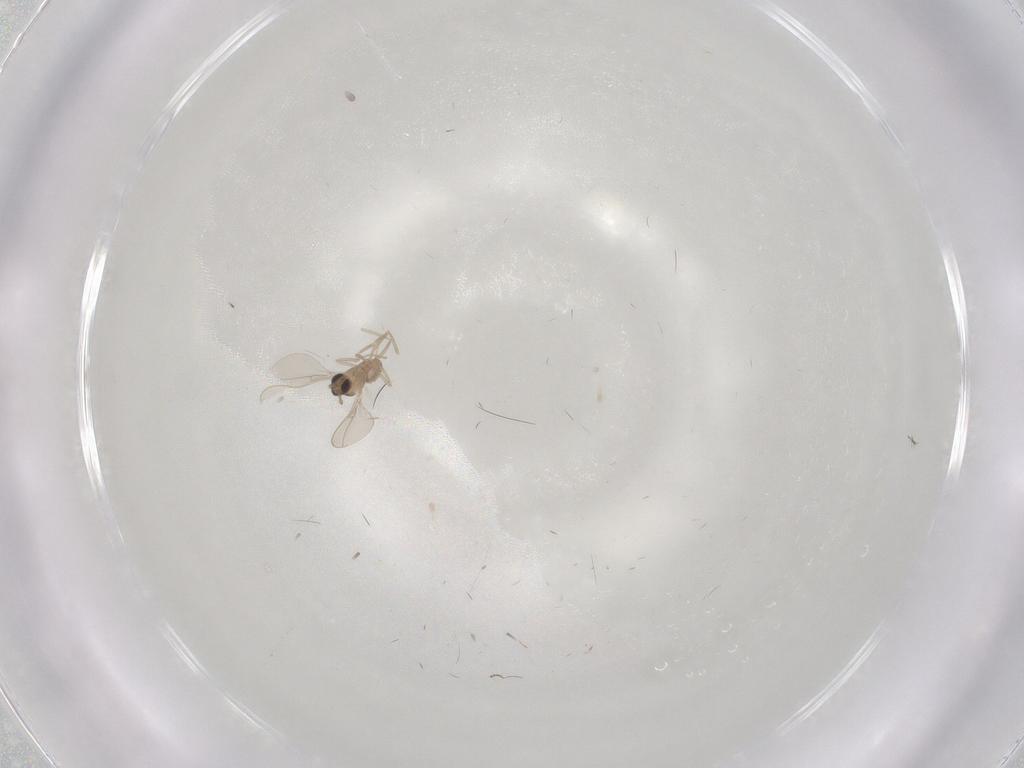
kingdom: Animalia
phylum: Arthropoda
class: Insecta
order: Diptera
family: Cecidomyiidae
